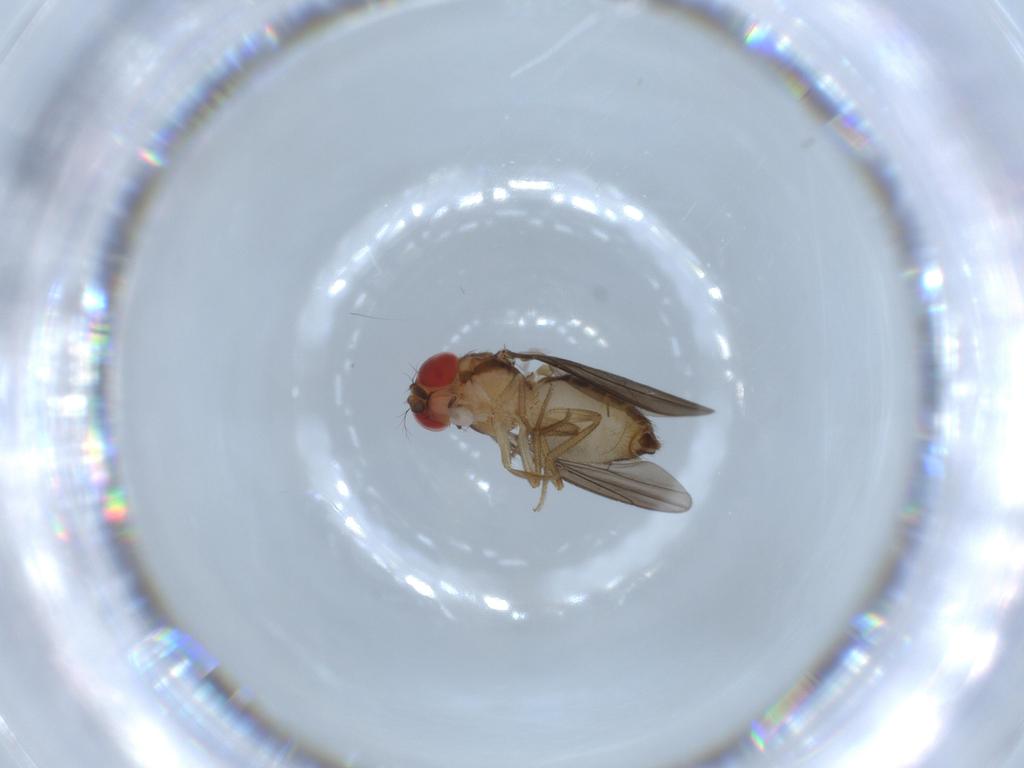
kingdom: Animalia
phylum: Arthropoda
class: Insecta
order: Diptera
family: Drosophilidae
